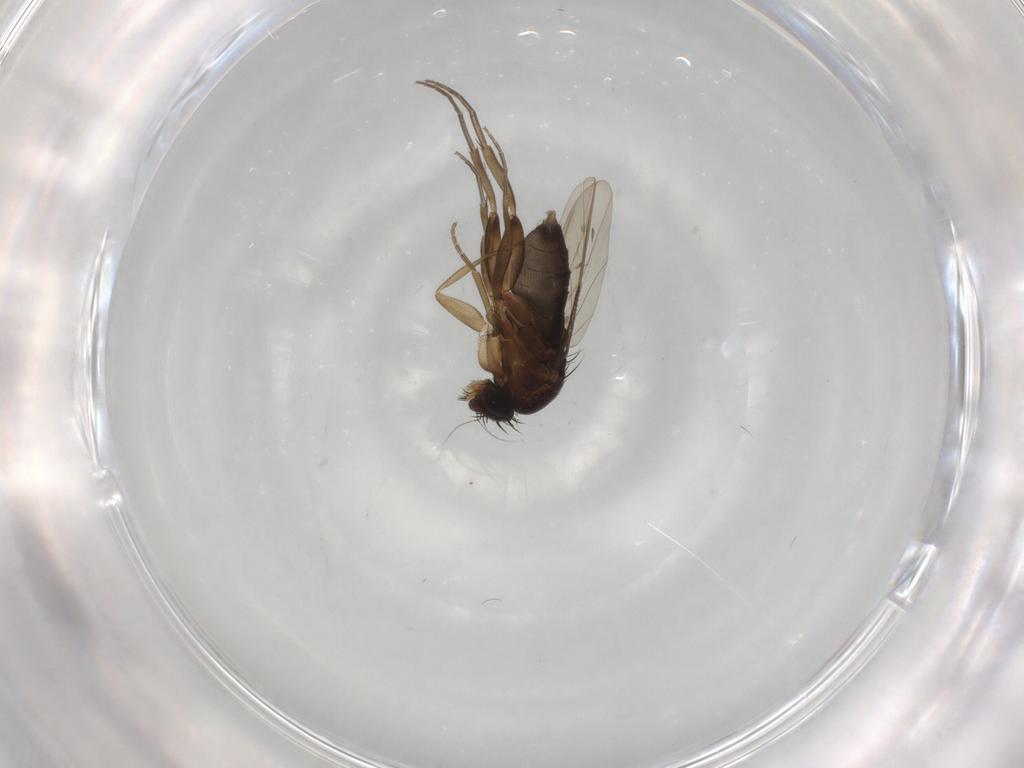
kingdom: Animalia
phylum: Arthropoda
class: Insecta
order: Diptera
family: Phoridae
